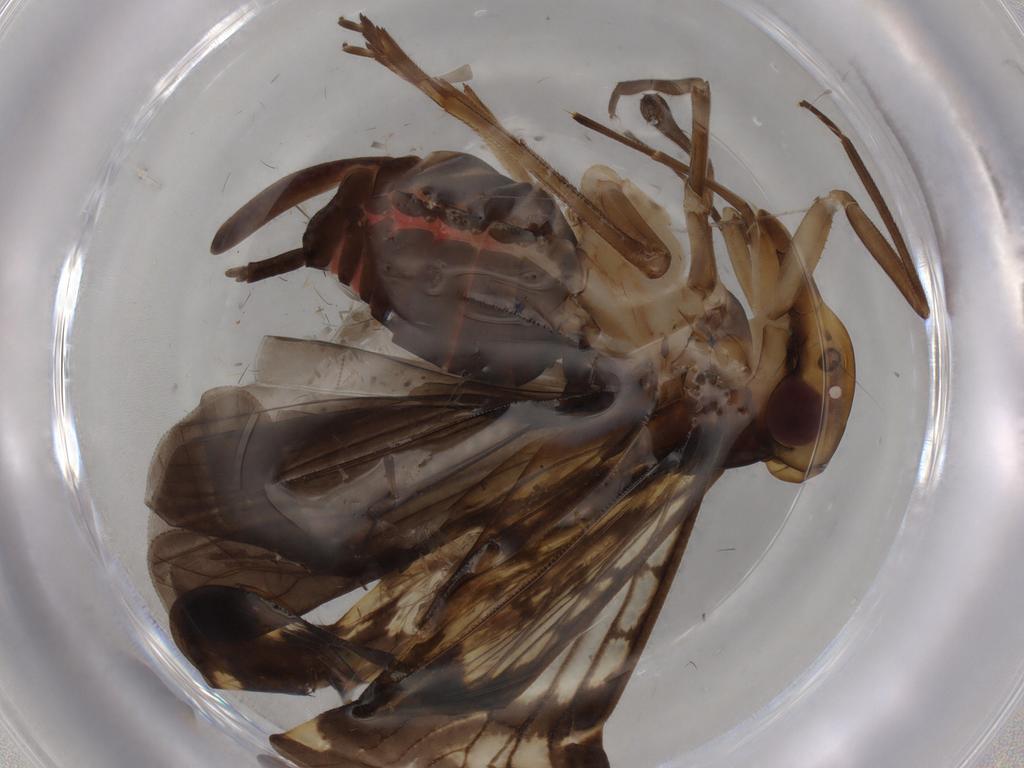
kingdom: Animalia
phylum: Arthropoda
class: Insecta
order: Hemiptera
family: Cixiidae
